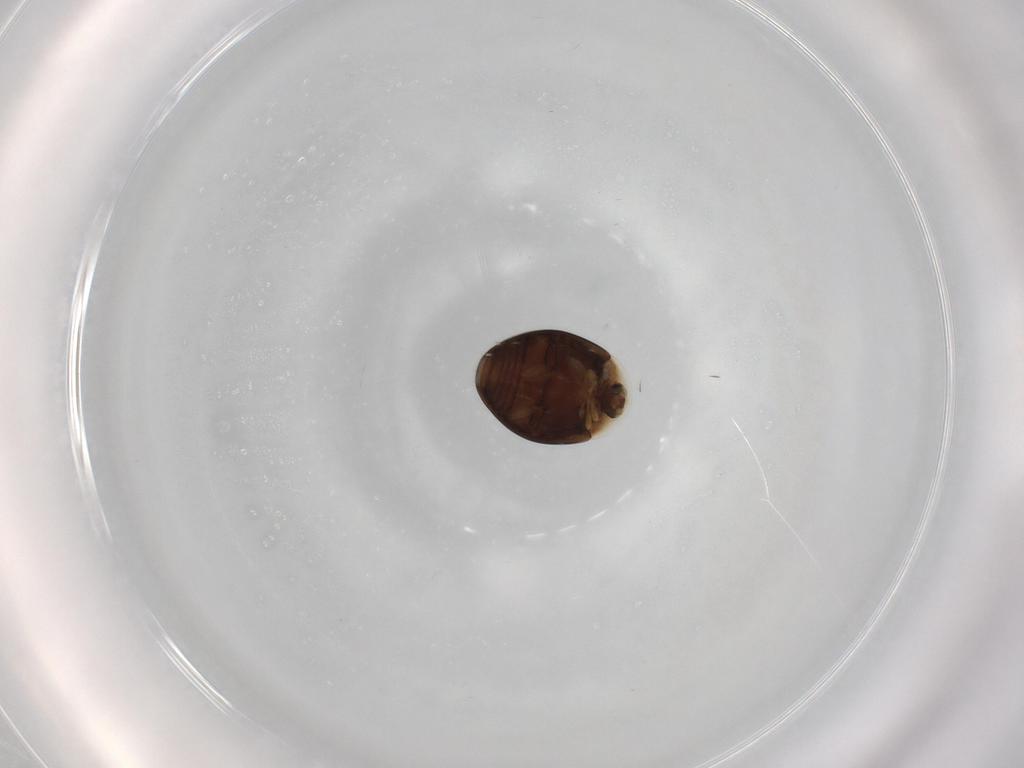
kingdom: Animalia
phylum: Arthropoda
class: Insecta
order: Coleoptera
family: Corylophidae
